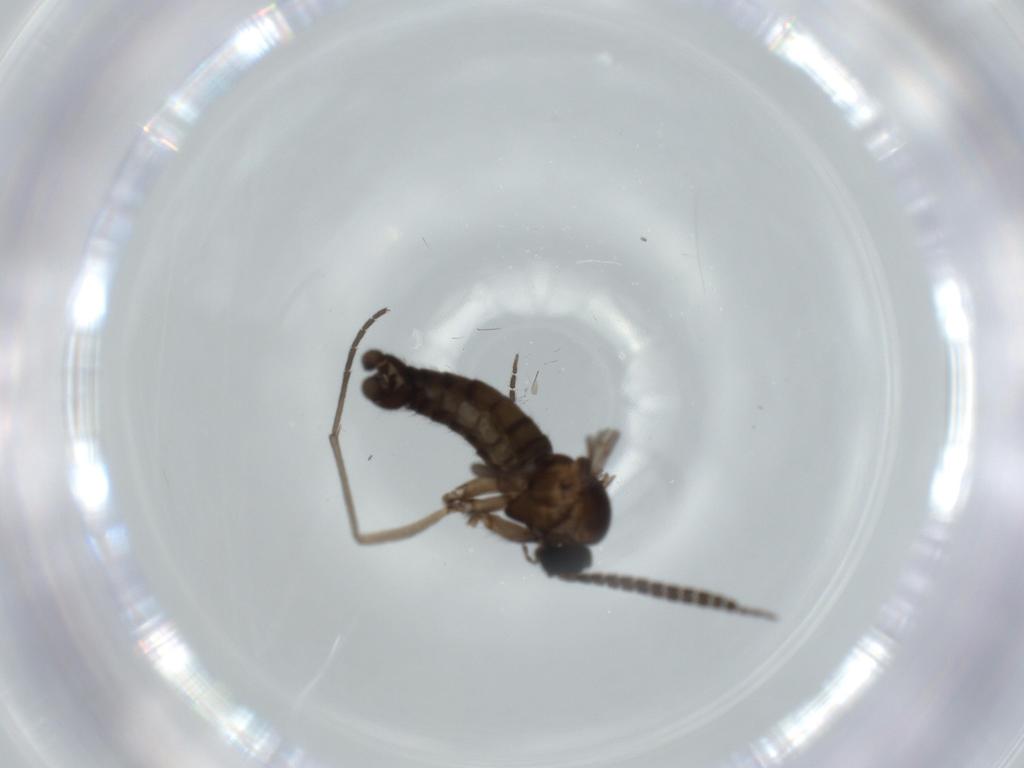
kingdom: Animalia
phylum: Arthropoda
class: Insecta
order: Diptera
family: Sciaridae
